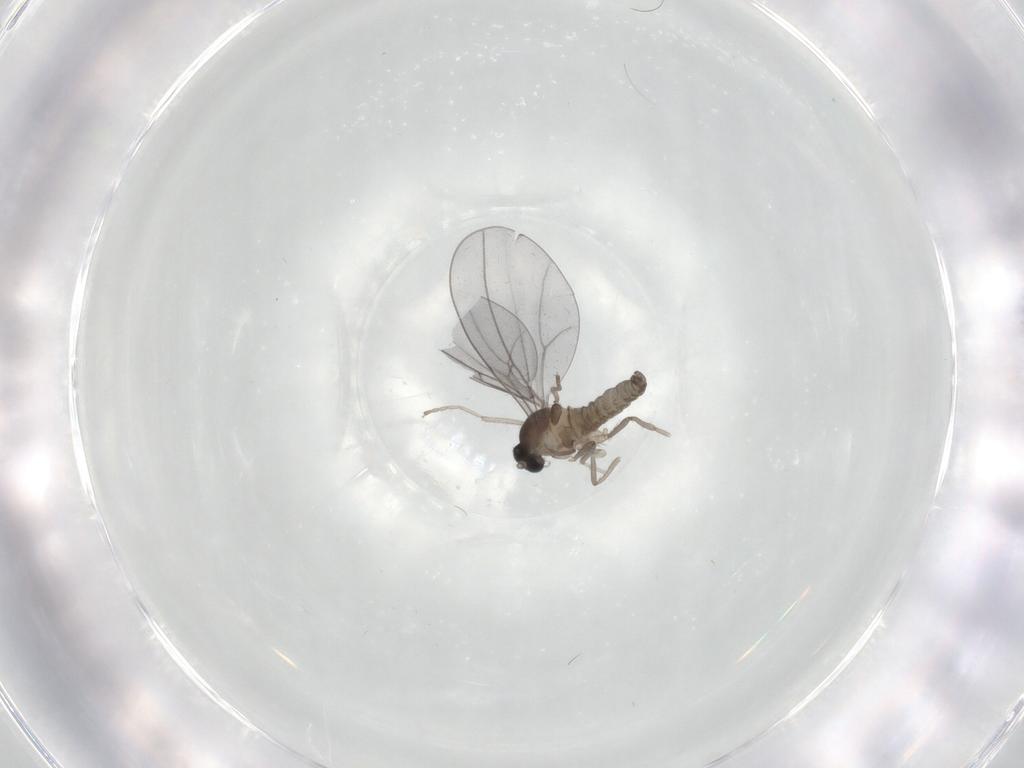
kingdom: Animalia
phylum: Arthropoda
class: Insecta
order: Diptera
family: Cecidomyiidae
